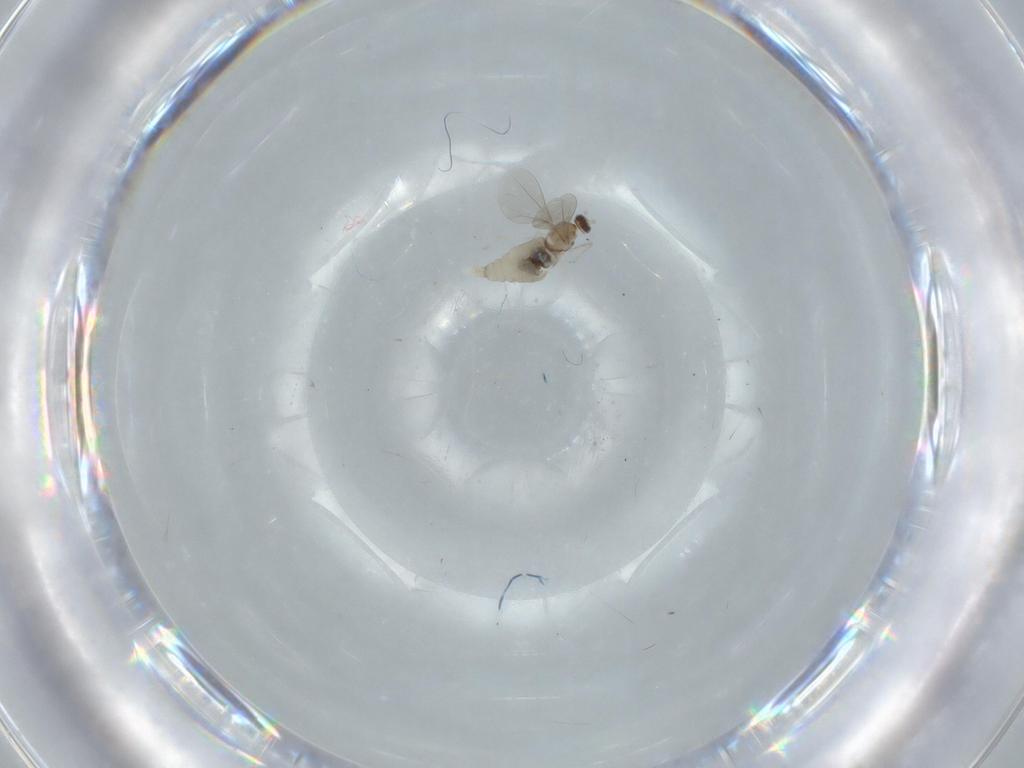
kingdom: Animalia
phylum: Arthropoda
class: Insecta
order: Diptera
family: Cecidomyiidae
